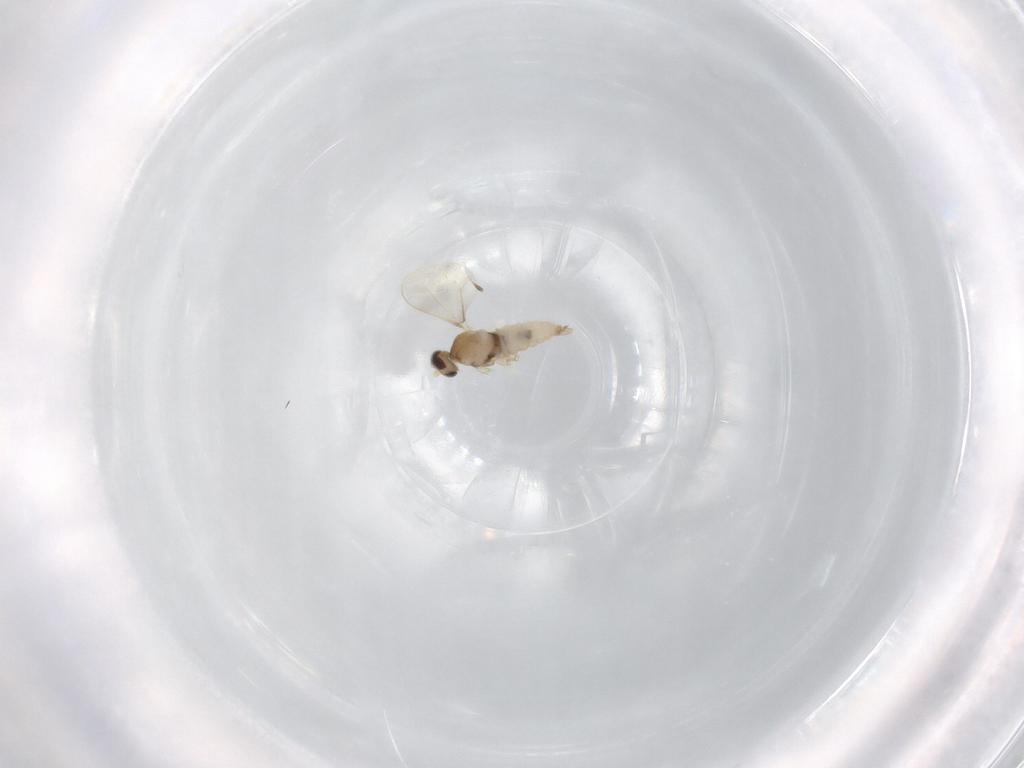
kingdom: Animalia
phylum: Arthropoda
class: Insecta
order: Diptera
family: Cecidomyiidae
